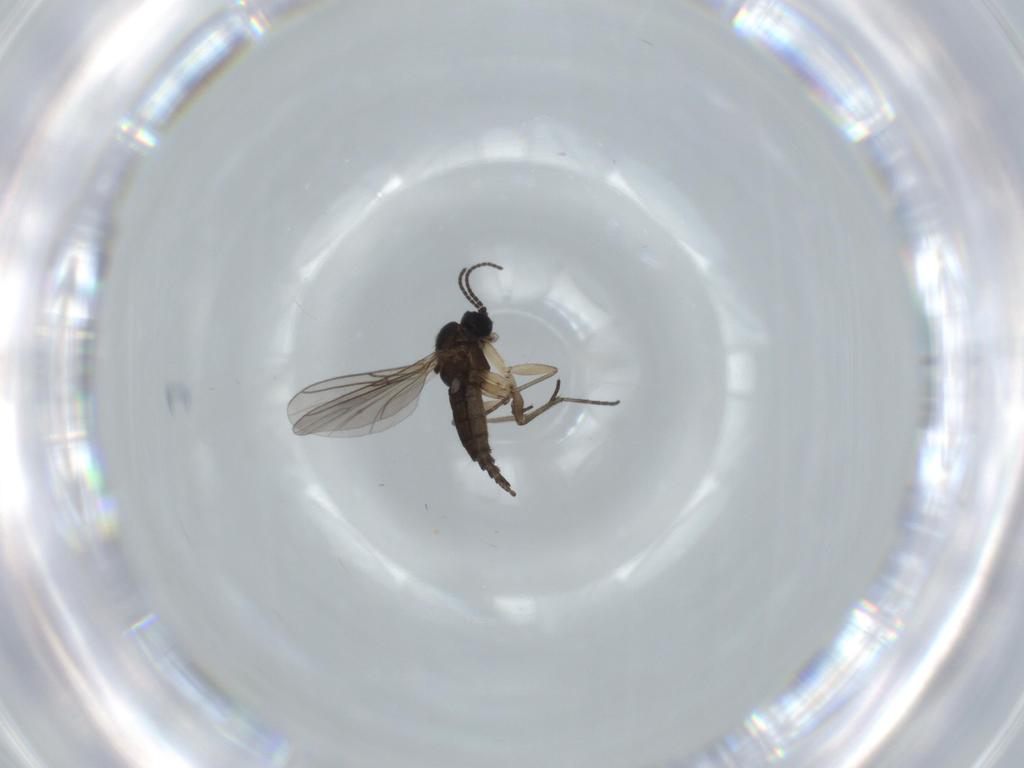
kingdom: Animalia
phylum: Arthropoda
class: Insecta
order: Diptera
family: Sciaridae
